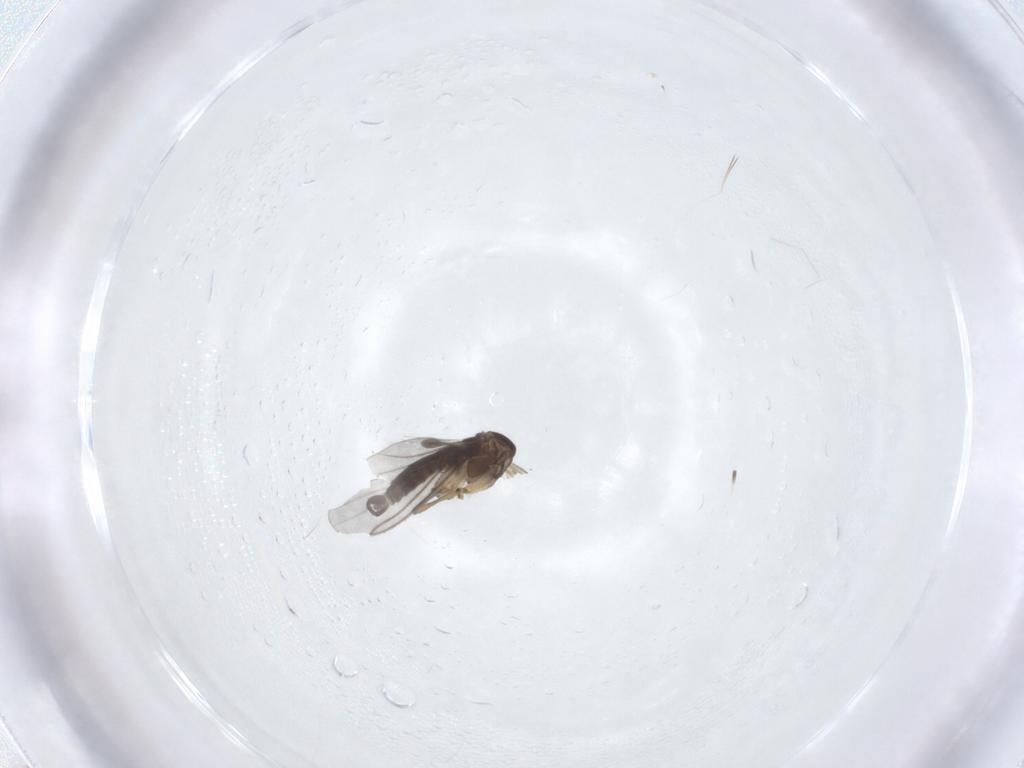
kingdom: Animalia
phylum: Arthropoda
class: Insecta
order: Diptera
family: Sciaridae
